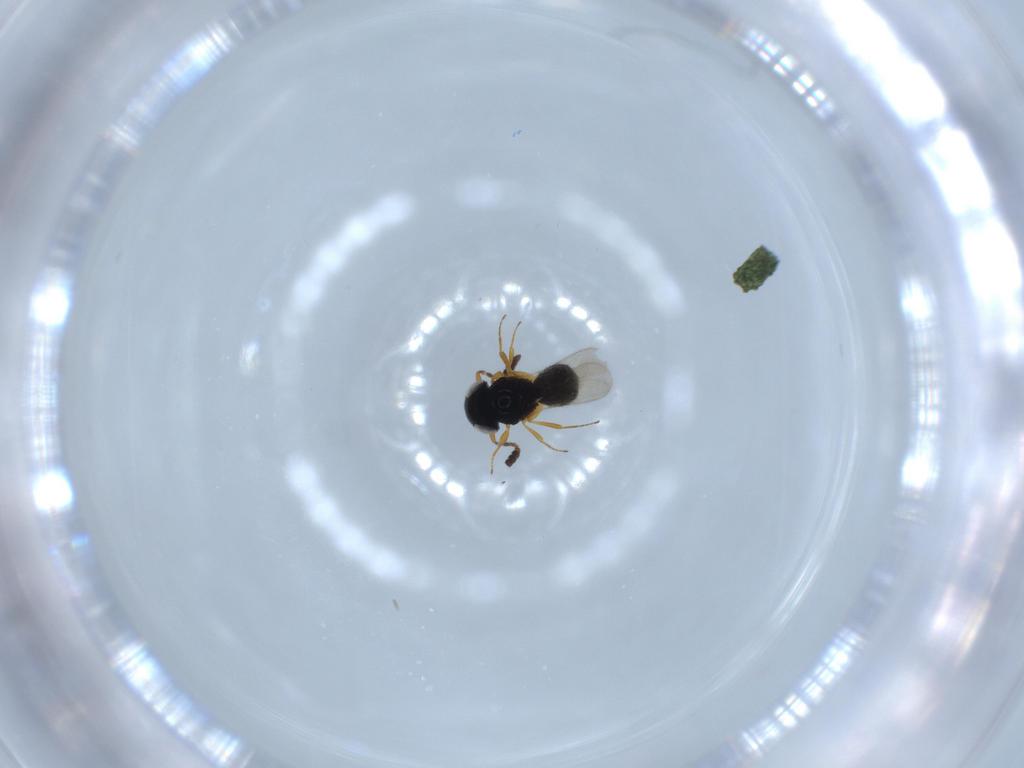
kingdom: Animalia
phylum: Arthropoda
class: Insecta
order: Hymenoptera
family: Scelionidae
